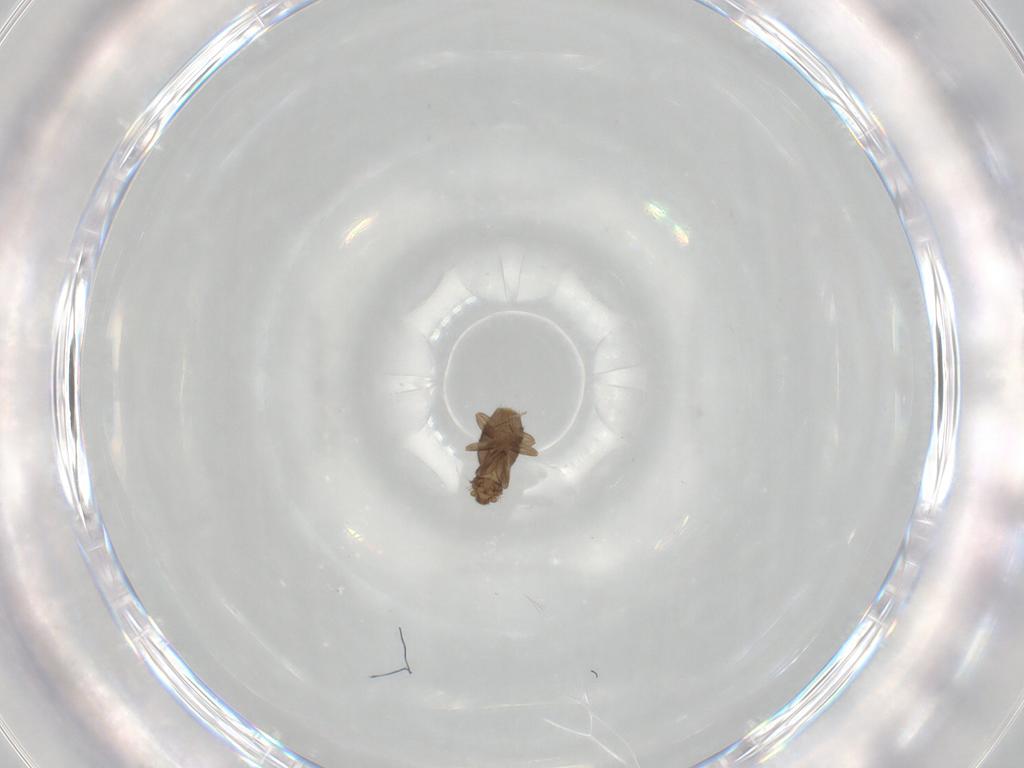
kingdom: Animalia
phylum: Arthropoda
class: Insecta
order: Diptera
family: Phoridae
